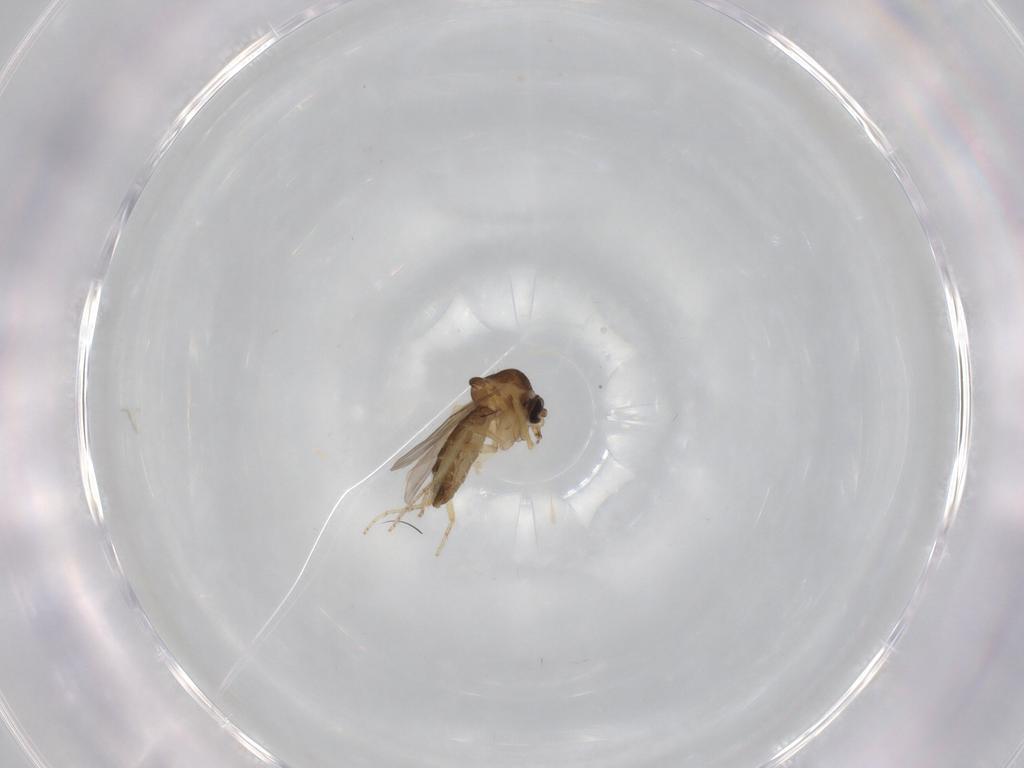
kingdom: Animalia
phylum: Arthropoda
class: Insecta
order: Diptera
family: Ceratopogonidae
